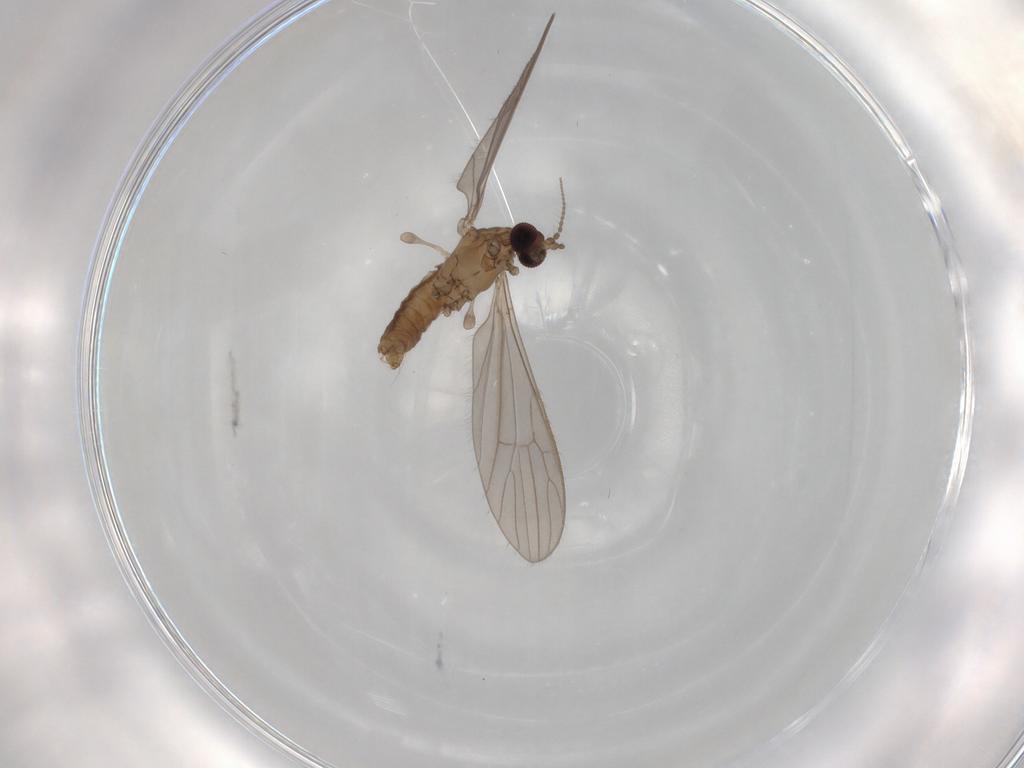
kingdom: Animalia
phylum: Arthropoda
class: Insecta
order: Diptera
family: Limoniidae
